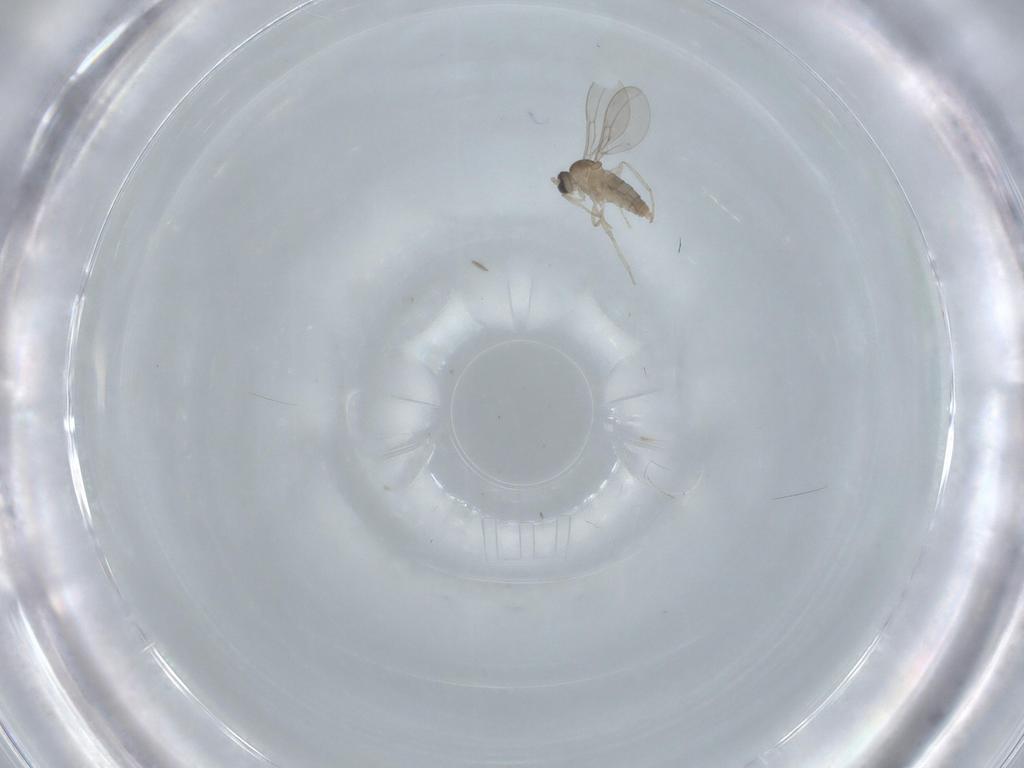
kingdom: Animalia
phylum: Arthropoda
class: Insecta
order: Diptera
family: Cecidomyiidae
